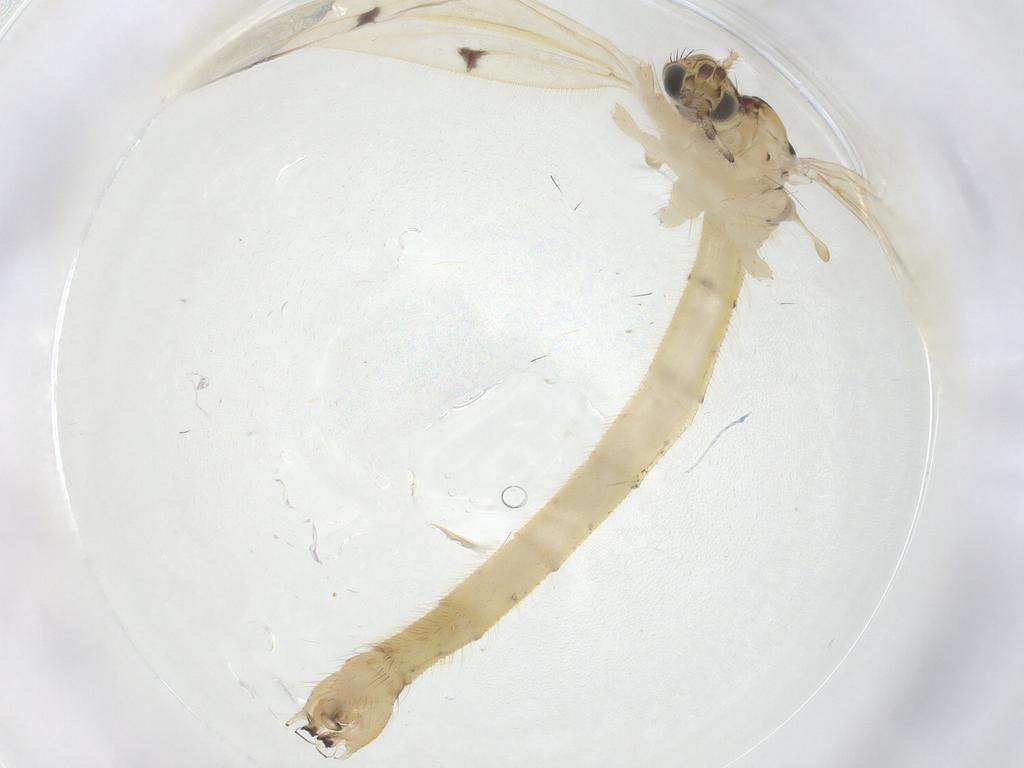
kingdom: Animalia
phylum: Arthropoda
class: Insecta
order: Diptera
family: Limoniidae
